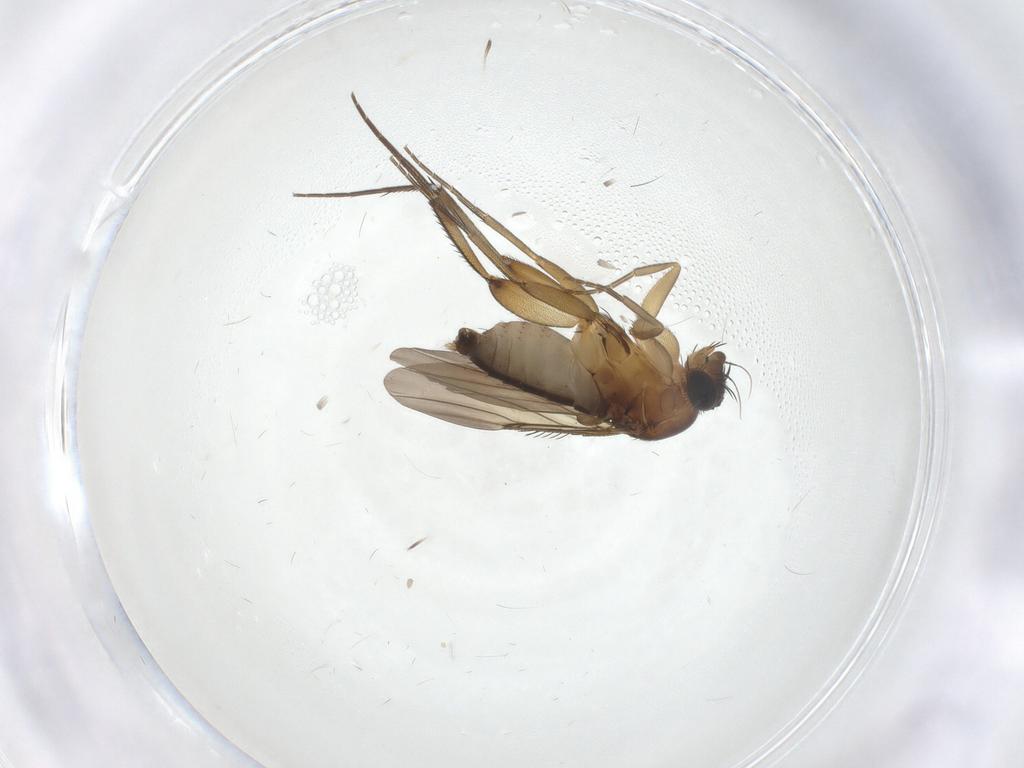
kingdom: Animalia
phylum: Arthropoda
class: Insecta
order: Diptera
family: Phoridae
